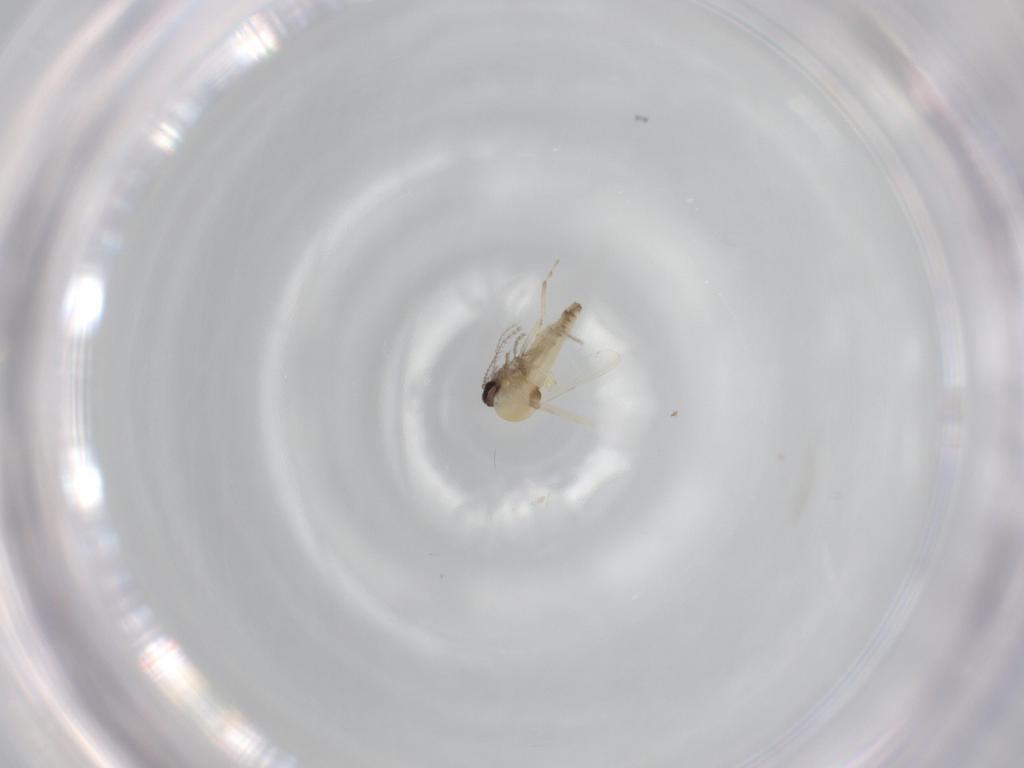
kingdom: Animalia
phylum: Arthropoda
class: Insecta
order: Diptera
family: Ceratopogonidae
